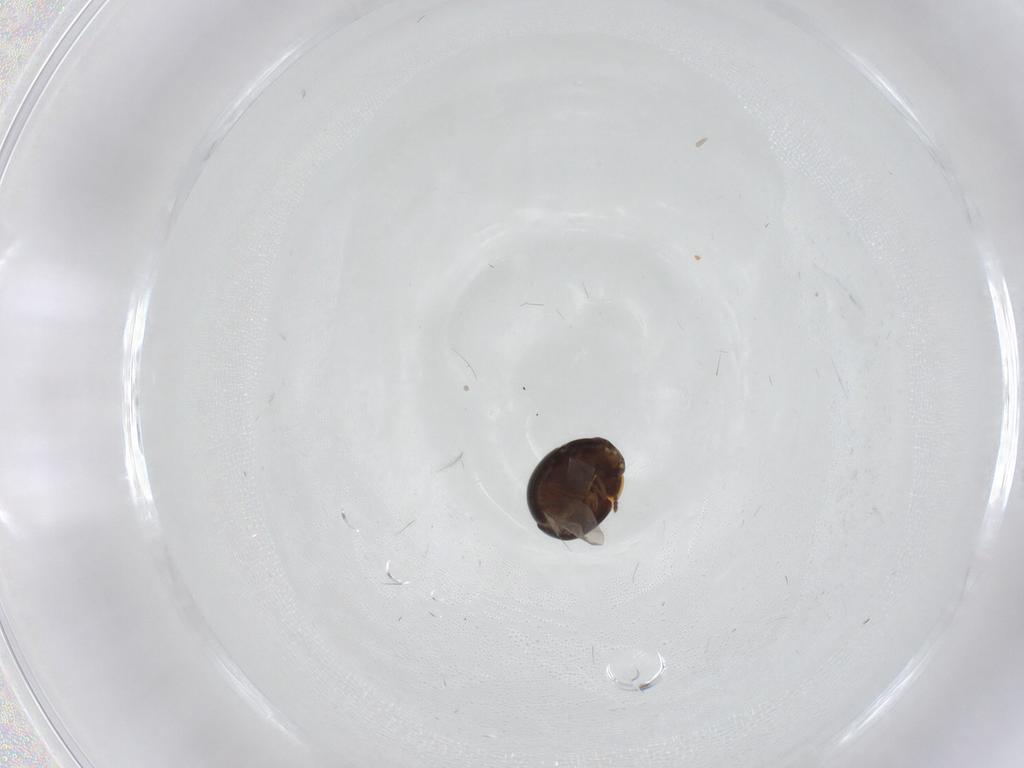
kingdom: Animalia
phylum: Arthropoda
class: Insecta
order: Coleoptera
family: Leiodidae
